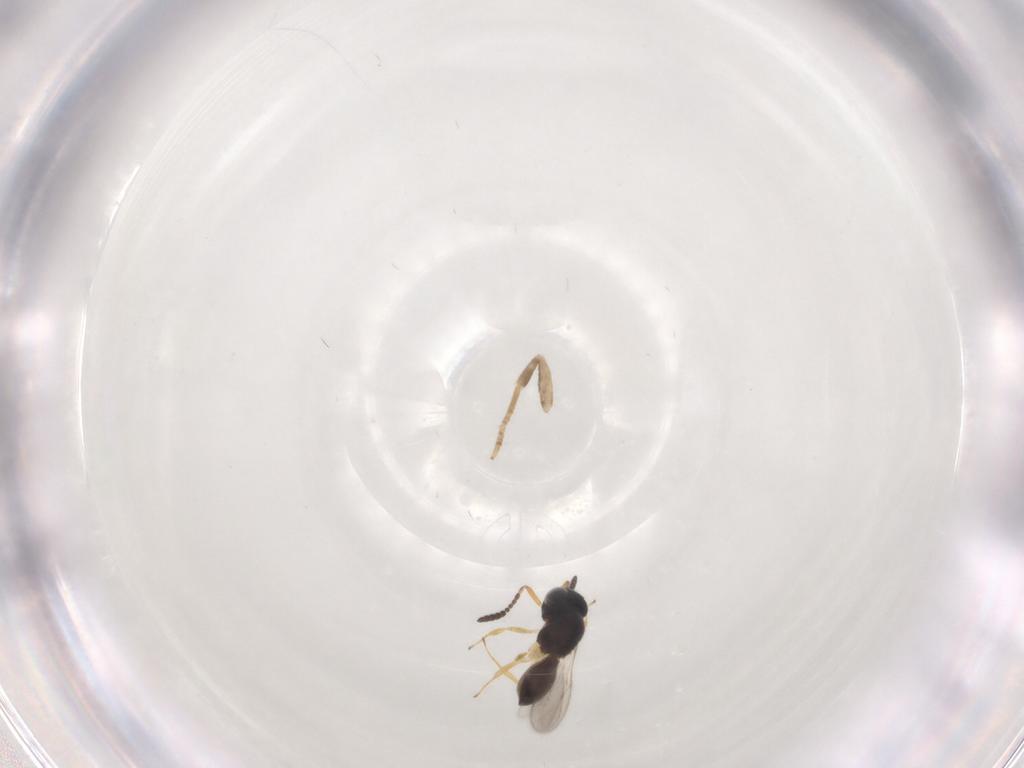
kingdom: Animalia
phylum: Arthropoda
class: Insecta
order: Hymenoptera
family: Scelionidae
